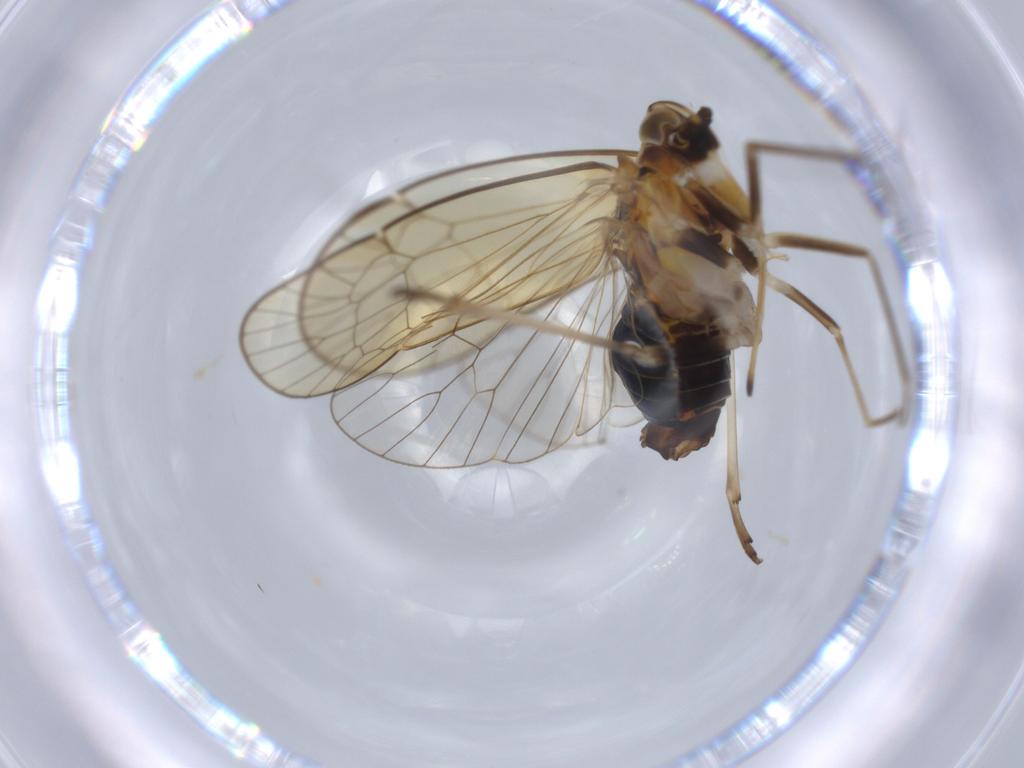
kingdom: Animalia
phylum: Arthropoda
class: Insecta
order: Hemiptera
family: Kinnaridae
